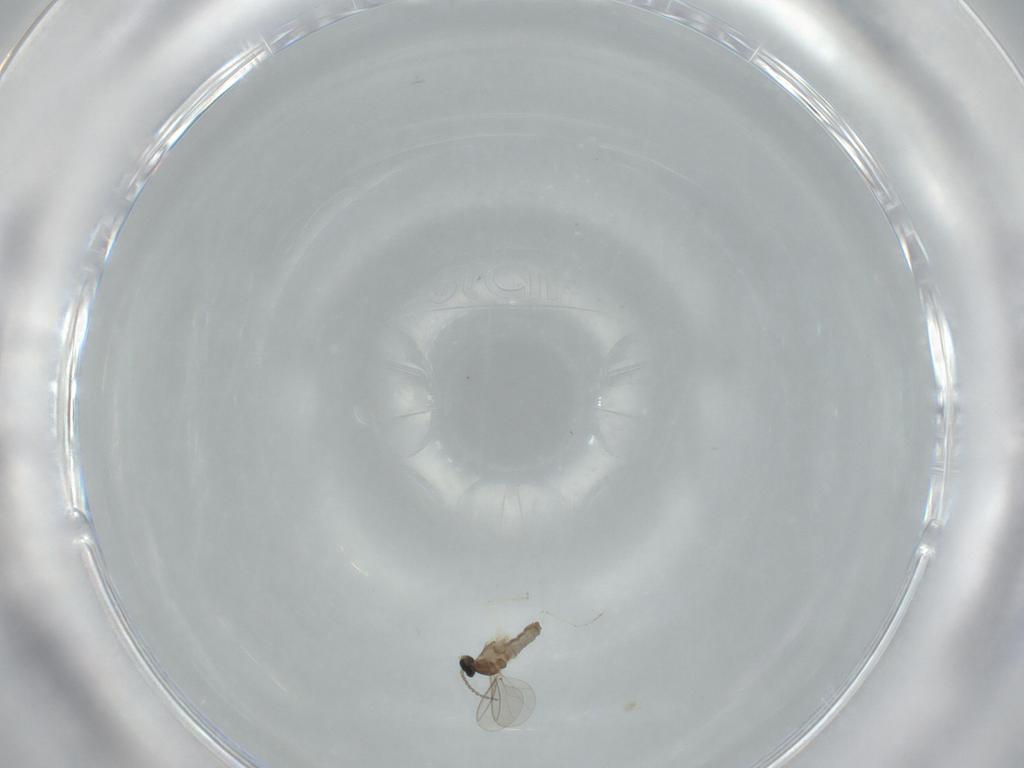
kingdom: Animalia
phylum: Arthropoda
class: Insecta
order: Diptera
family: Cecidomyiidae
